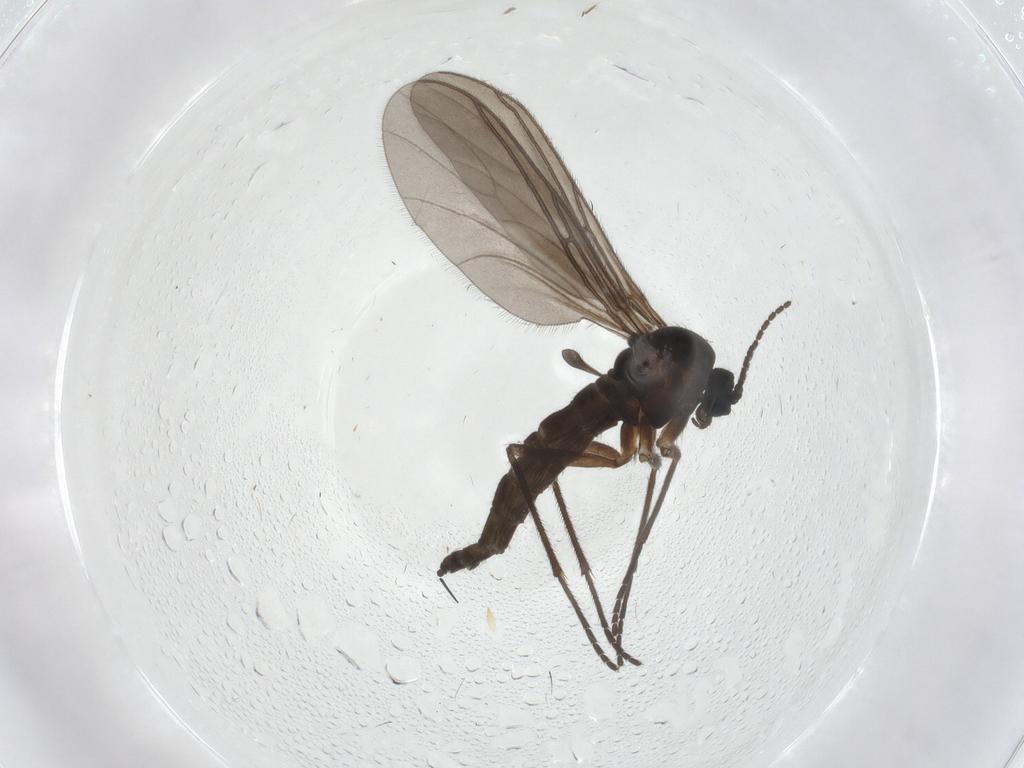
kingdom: Animalia
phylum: Arthropoda
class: Insecta
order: Diptera
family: Sciaridae
